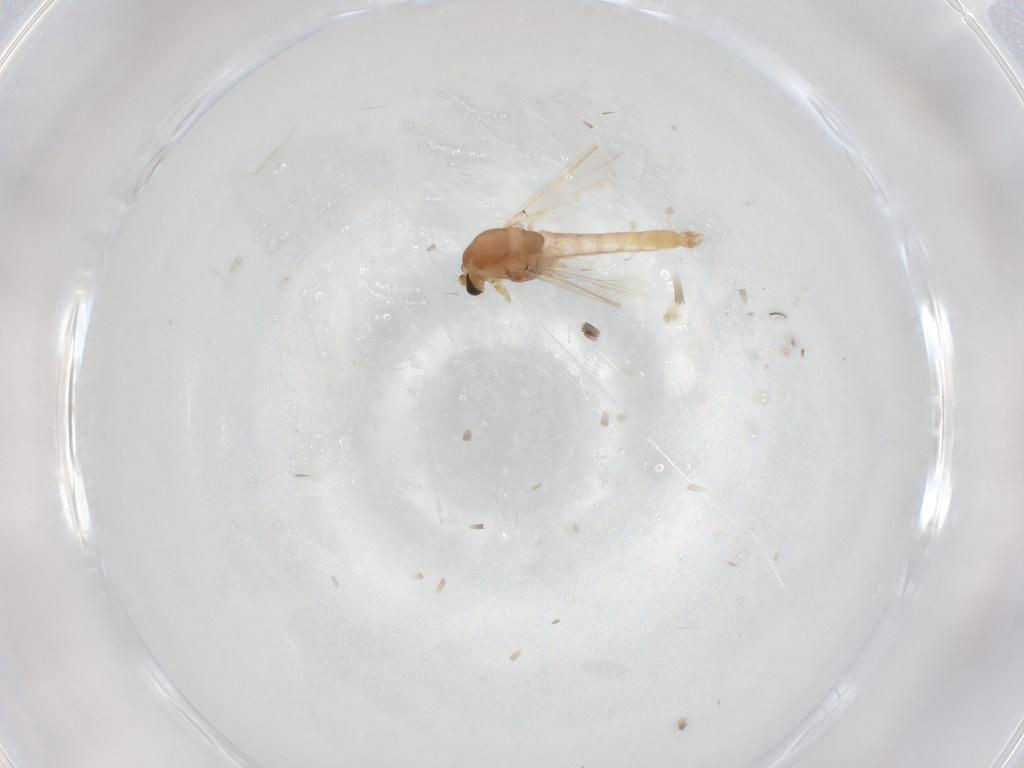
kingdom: Animalia
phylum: Arthropoda
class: Insecta
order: Diptera
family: Chironomidae
